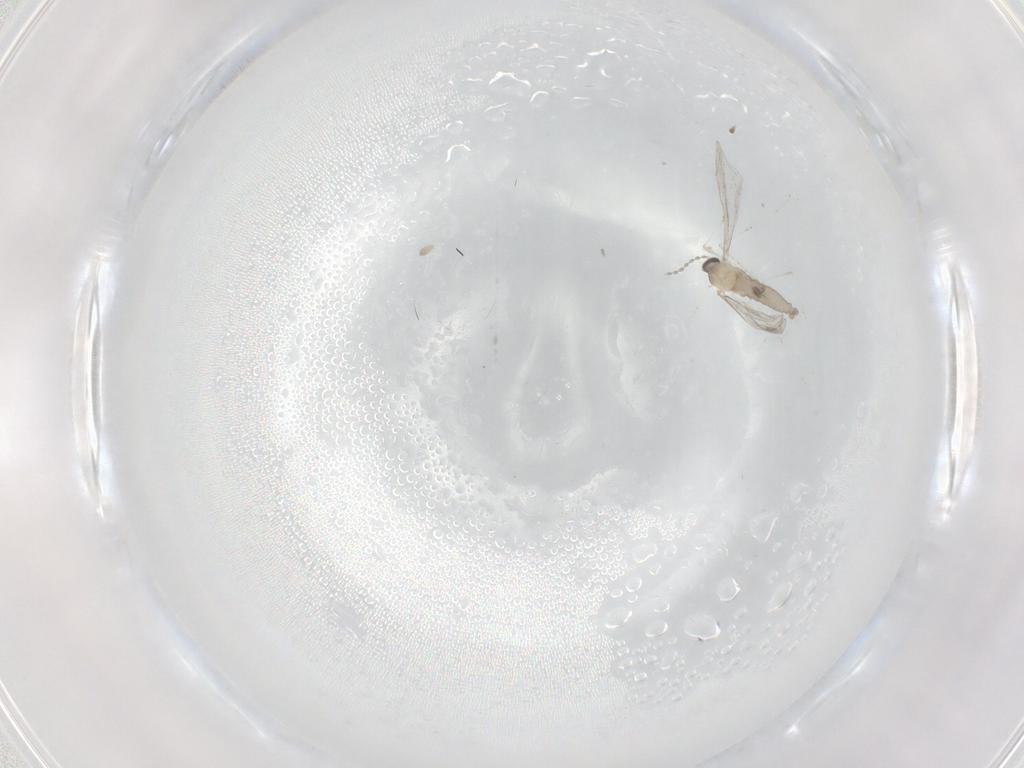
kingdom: Animalia
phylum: Arthropoda
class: Insecta
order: Diptera
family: Cecidomyiidae
